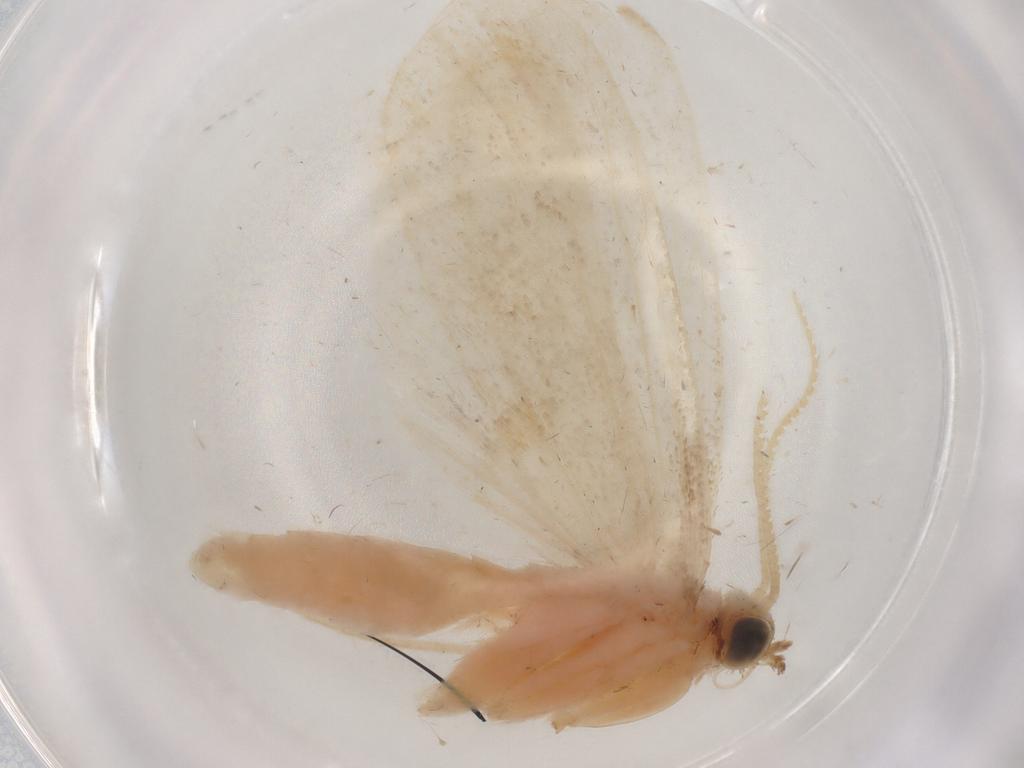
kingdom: Animalia
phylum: Arthropoda
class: Insecta
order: Lepidoptera
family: Crambidae
